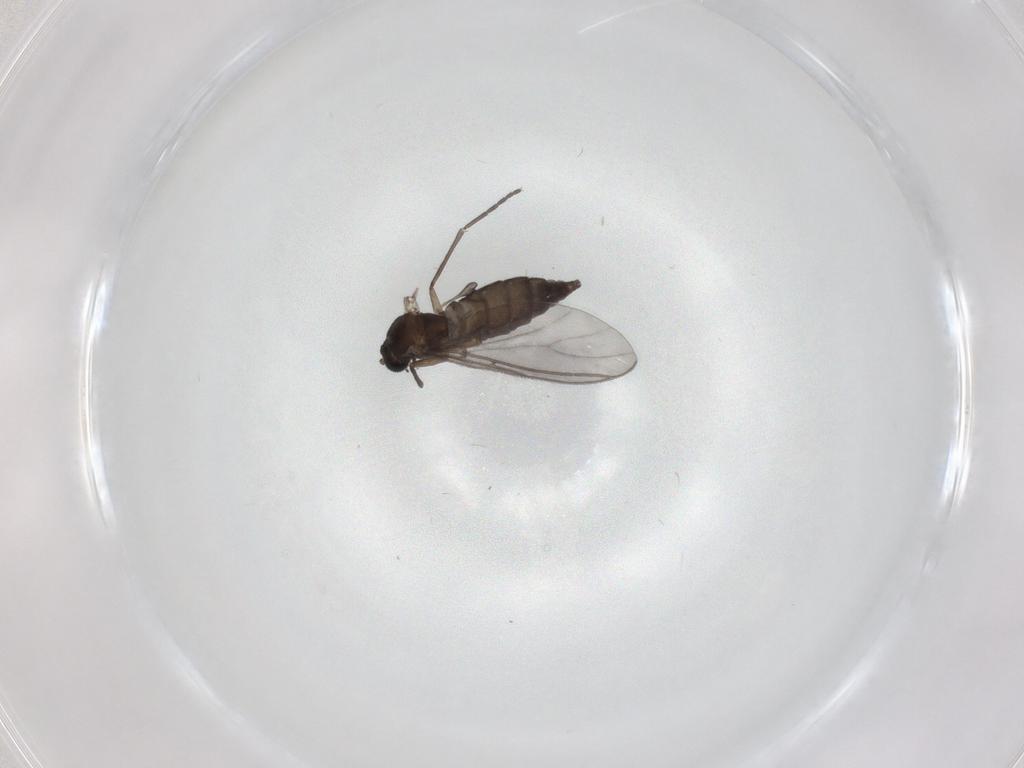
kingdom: Animalia
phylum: Arthropoda
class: Insecta
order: Diptera
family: Sciaridae
